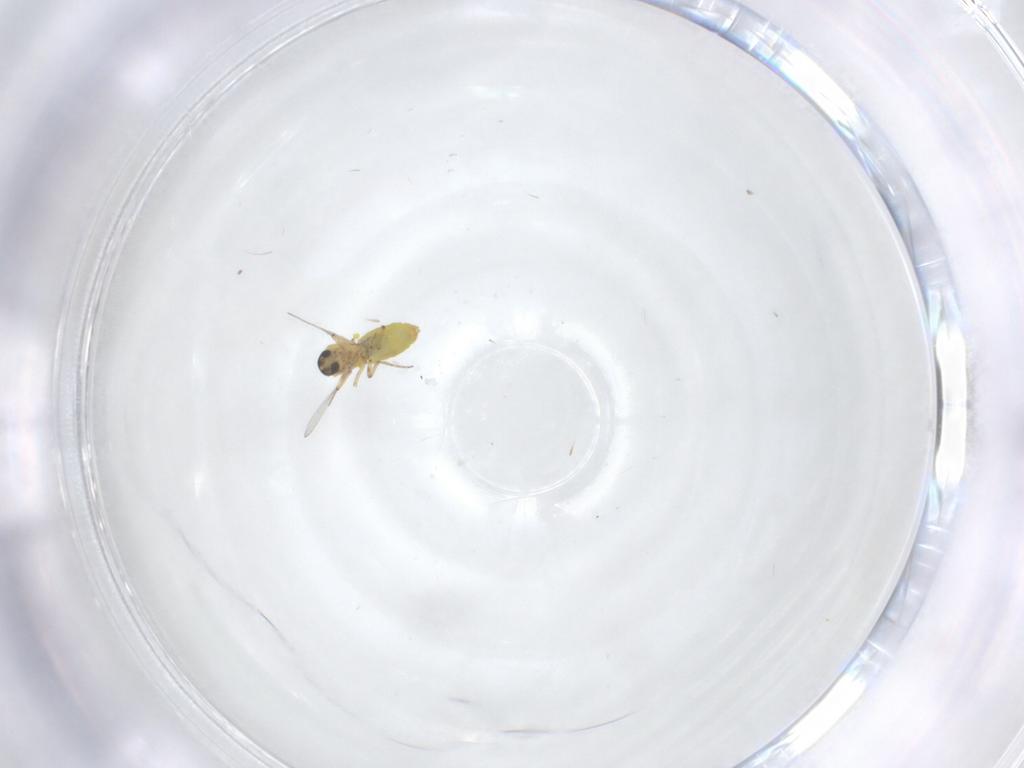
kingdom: Animalia
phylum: Arthropoda
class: Insecta
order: Diptera
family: Ceratopogonidae
